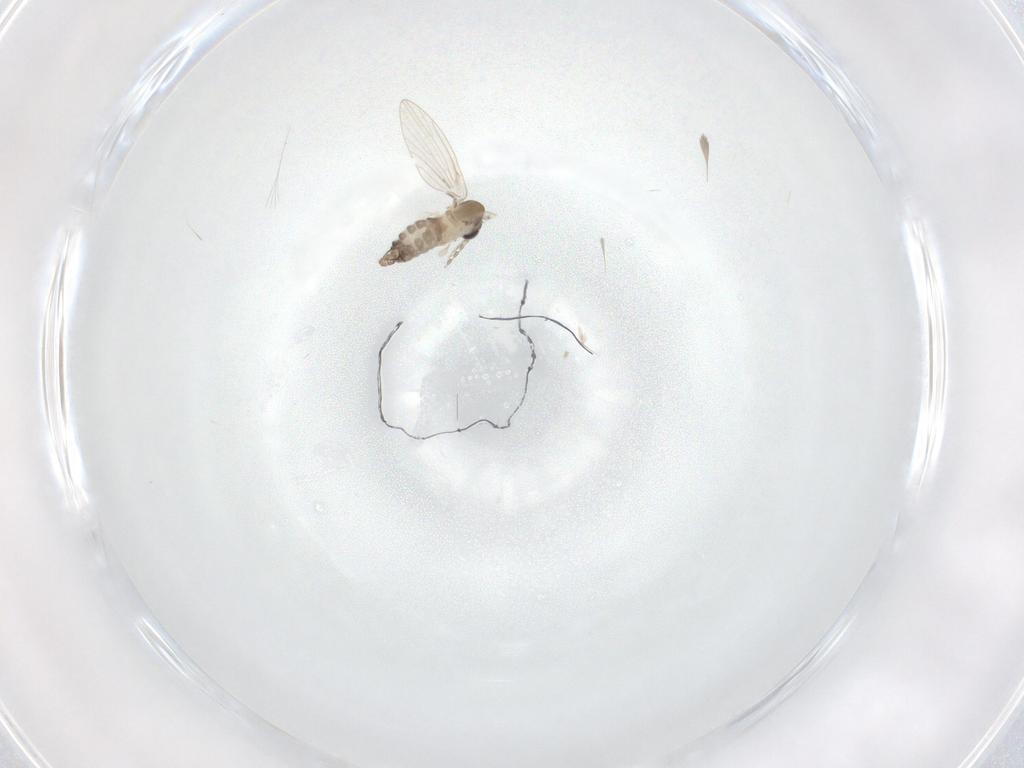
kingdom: Animalia
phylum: Arthropoda
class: Insecta
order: Diptera
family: Psychodidae
